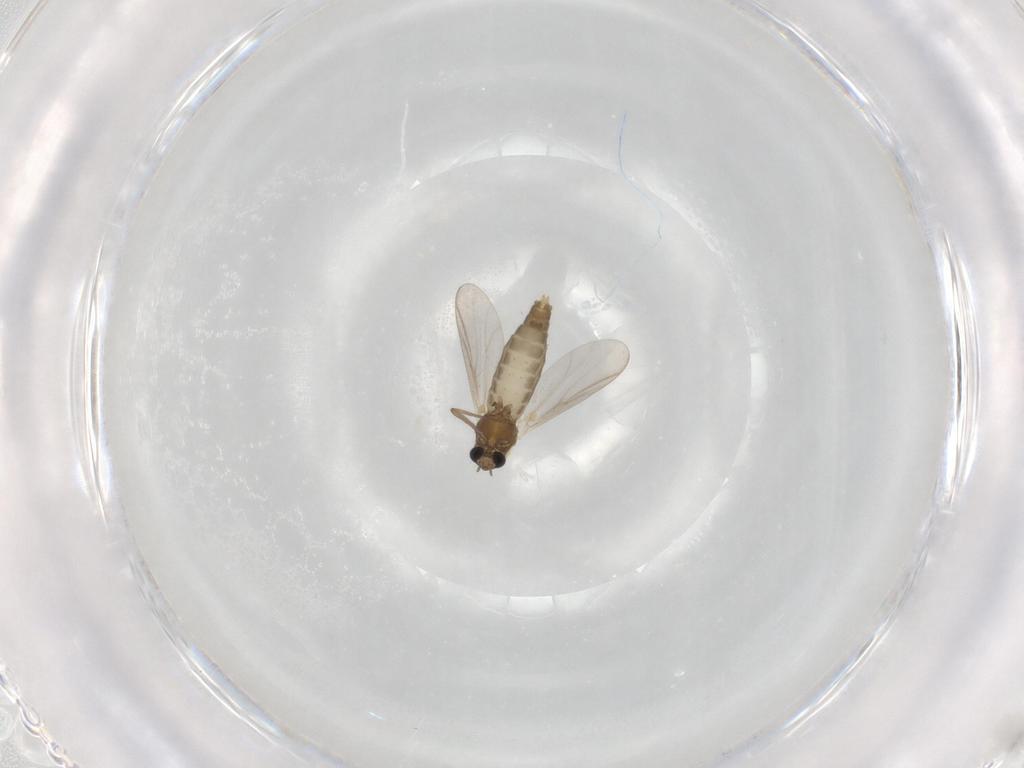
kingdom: Animalia
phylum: Arthropoda
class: Insecta
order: Diptera
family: Chironomidae
